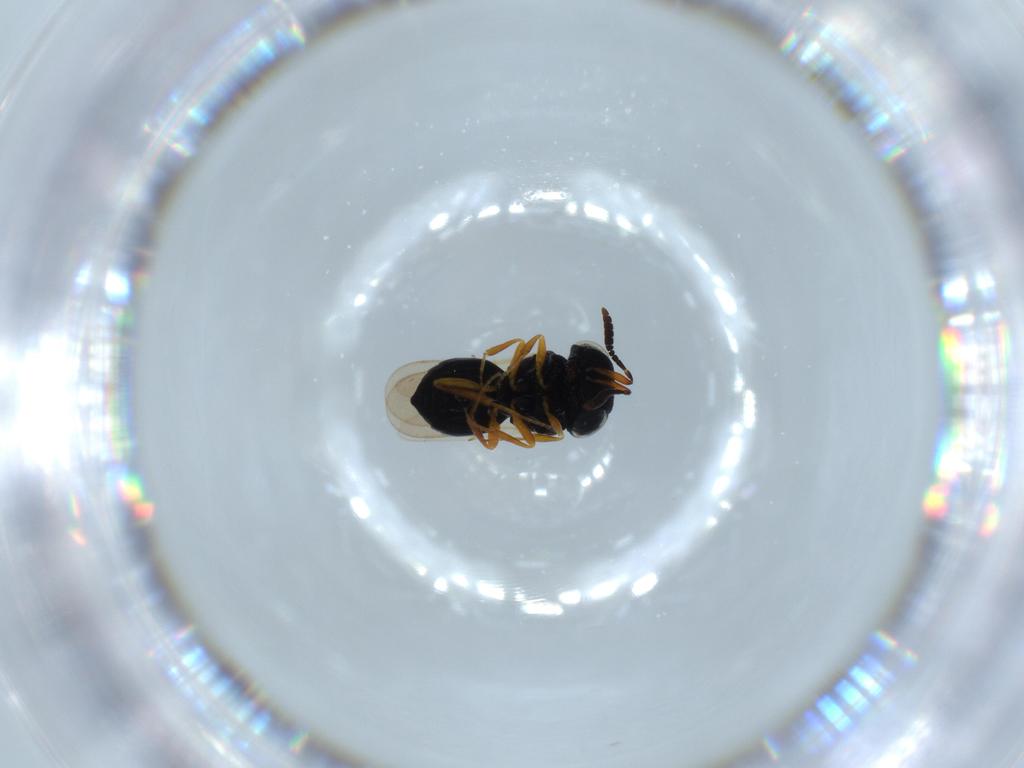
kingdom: Animalia
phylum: Arthropoda
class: Insecta
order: Hymenoptera
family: Scelionidae
